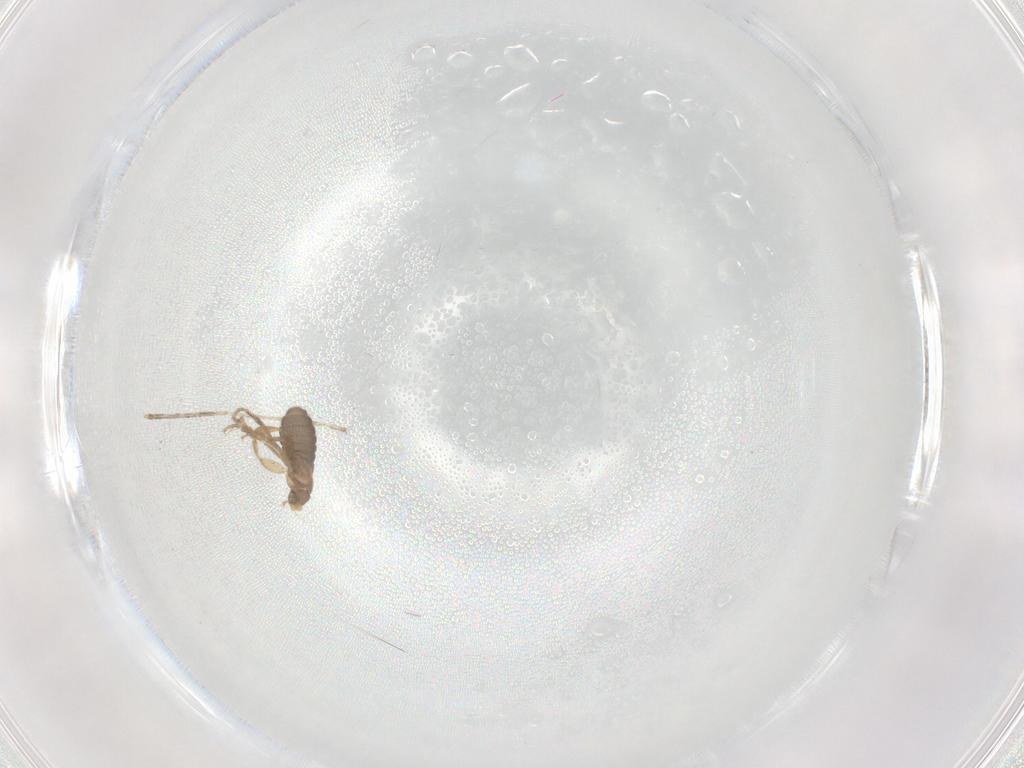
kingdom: Animalia
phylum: Arthropoda
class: Insecta
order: Diptera
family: Cecidomyiidae
